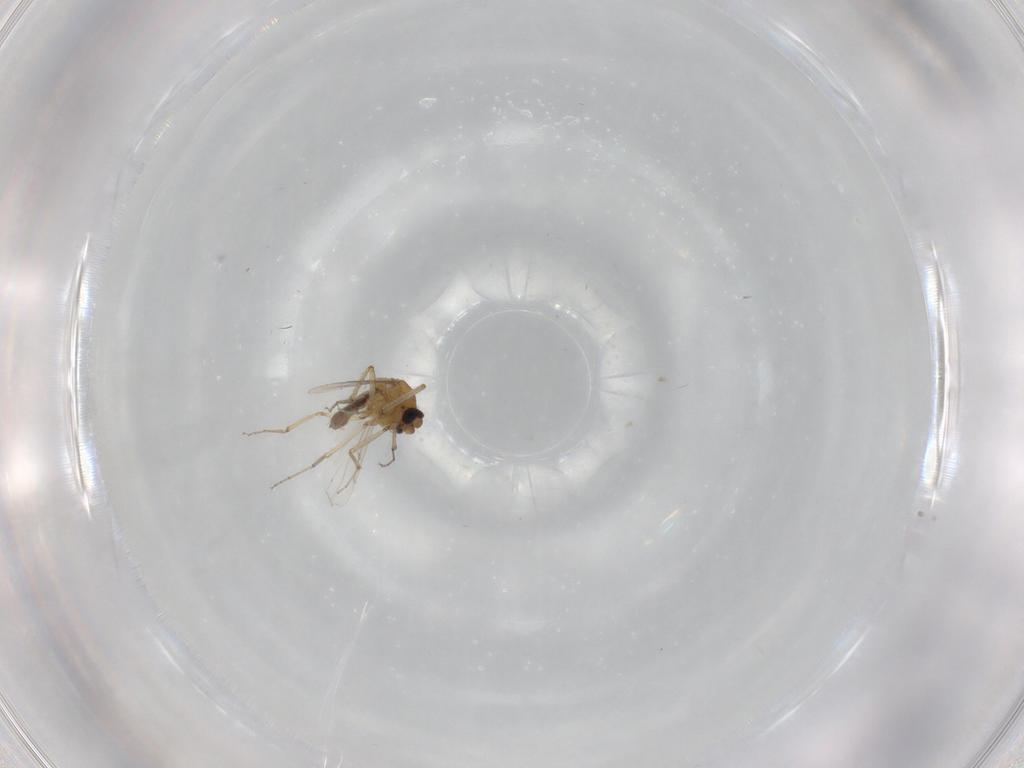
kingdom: Animalia
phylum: Arthropoda
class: Insecta
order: Diptera
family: Ceratopogonidae
